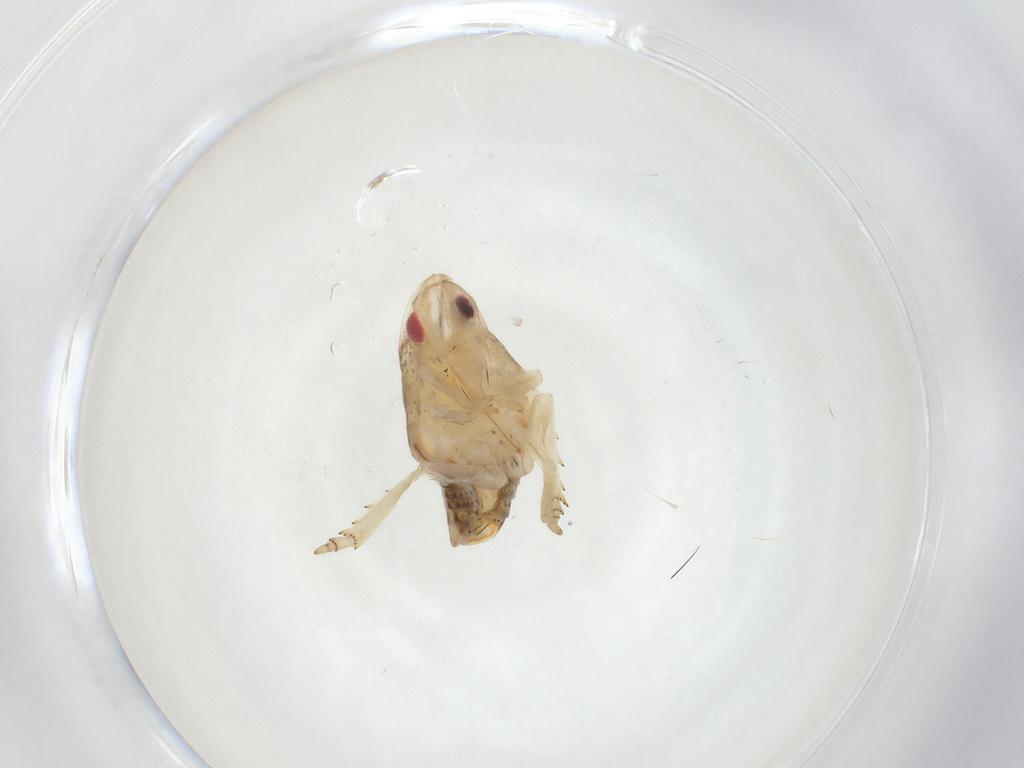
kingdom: Animalia
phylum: Arthropoda
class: Insecta
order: Hemiptera
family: Flatidae
